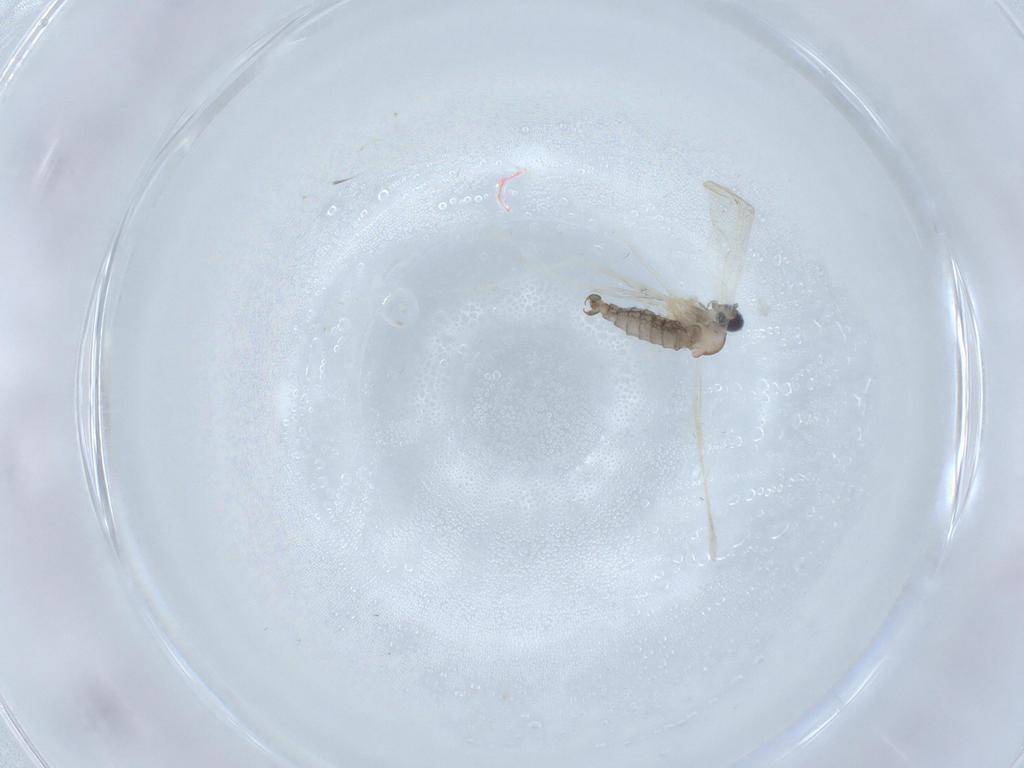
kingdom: Animalia
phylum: Arthropoda
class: Insecta
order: Diptera
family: Cecidomyiidae
